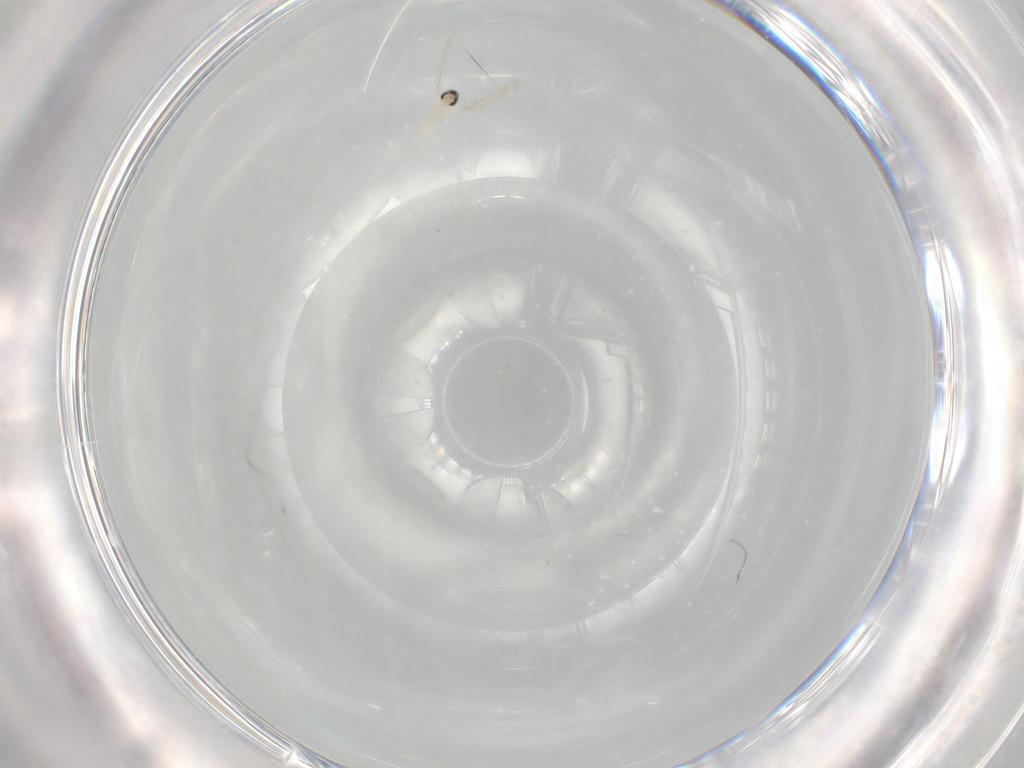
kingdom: Animalia
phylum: Arthropoda
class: Insecta
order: Diptera
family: Cecidomyiidae
